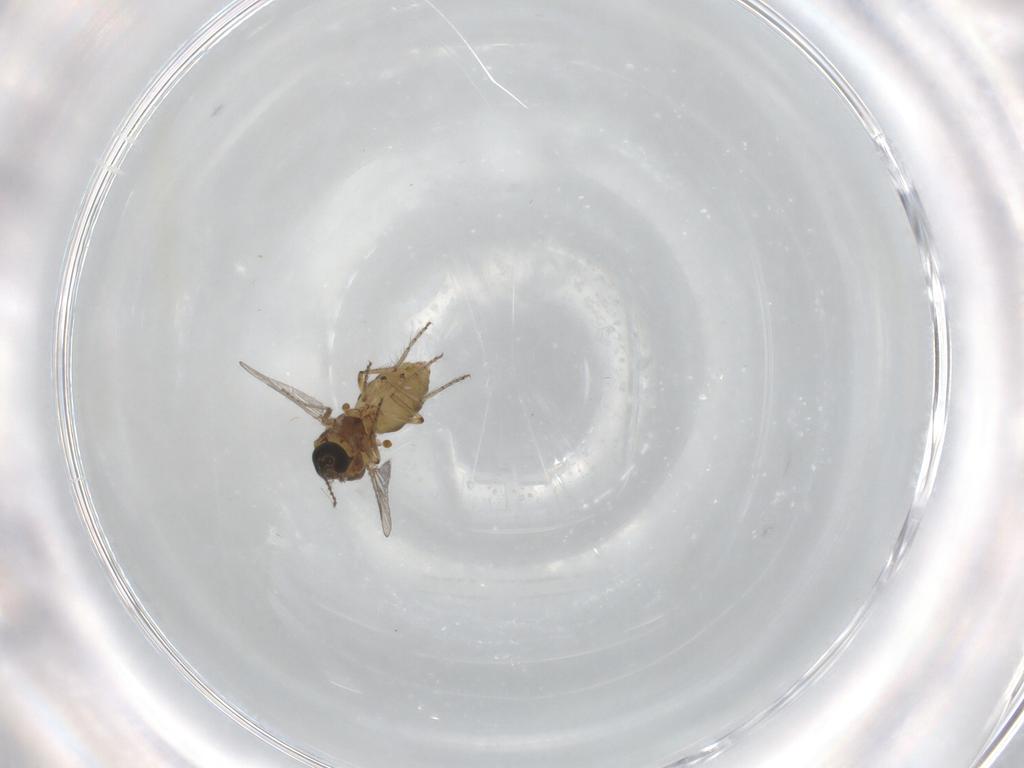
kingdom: Animalia
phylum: Arthropoda
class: Insecta
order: Diptera
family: Ceratopogonidae
